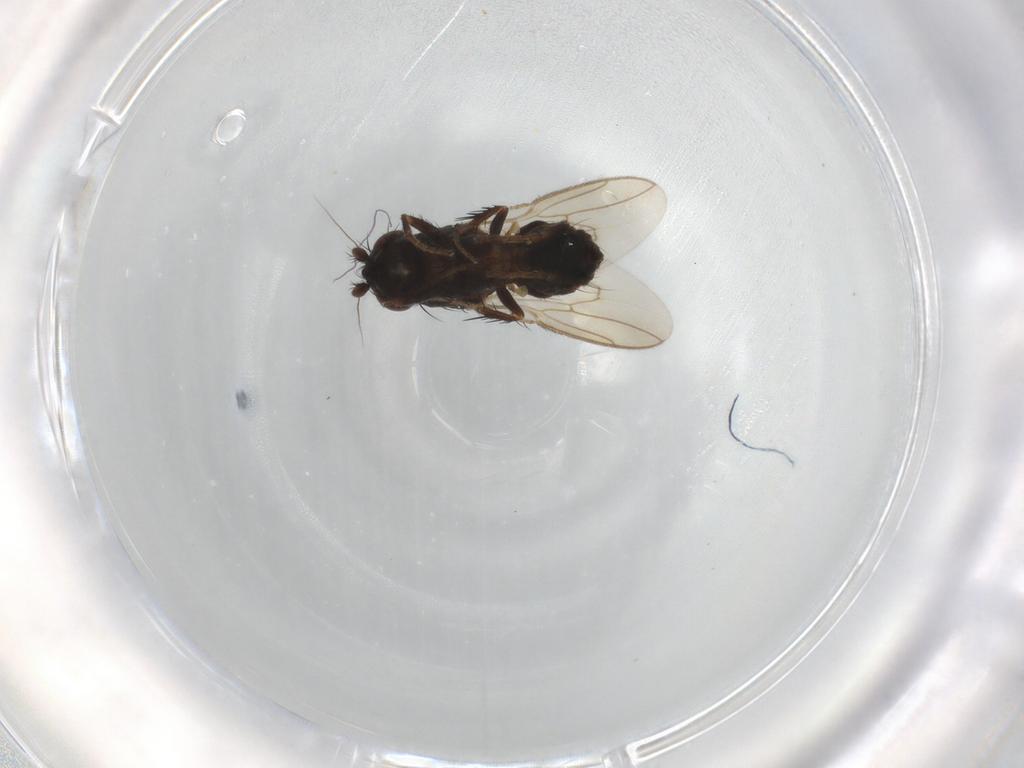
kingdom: Animalia
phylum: Arthropoda
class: Insecta
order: Diptera
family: Sphaeroceridae
